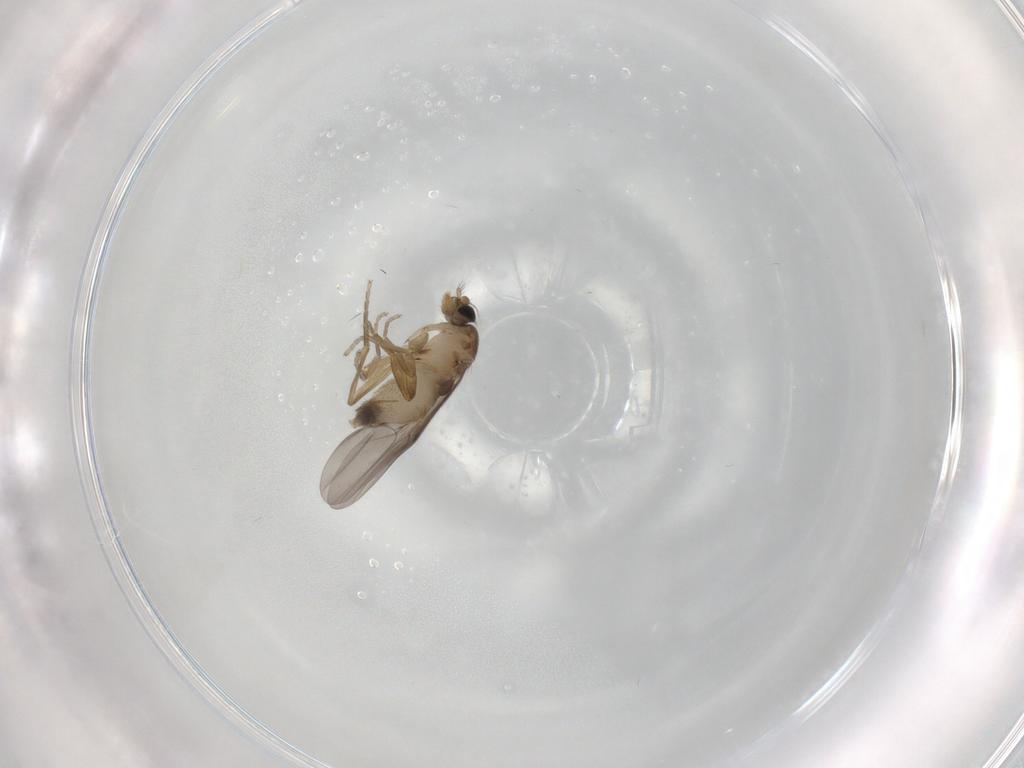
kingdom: Animalia
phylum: Arthropoda
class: Insecta
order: Diptera
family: Phoridae
